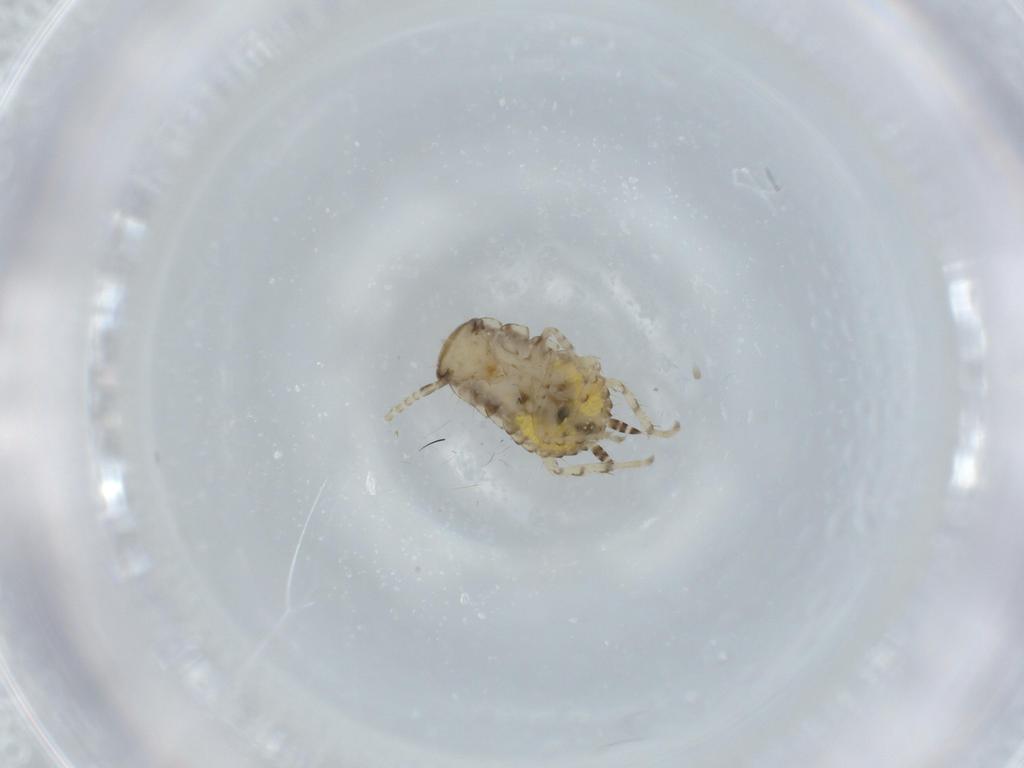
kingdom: Animalia
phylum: Arthropoda
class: Insecta
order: Blattodea
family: Ectobiidae
